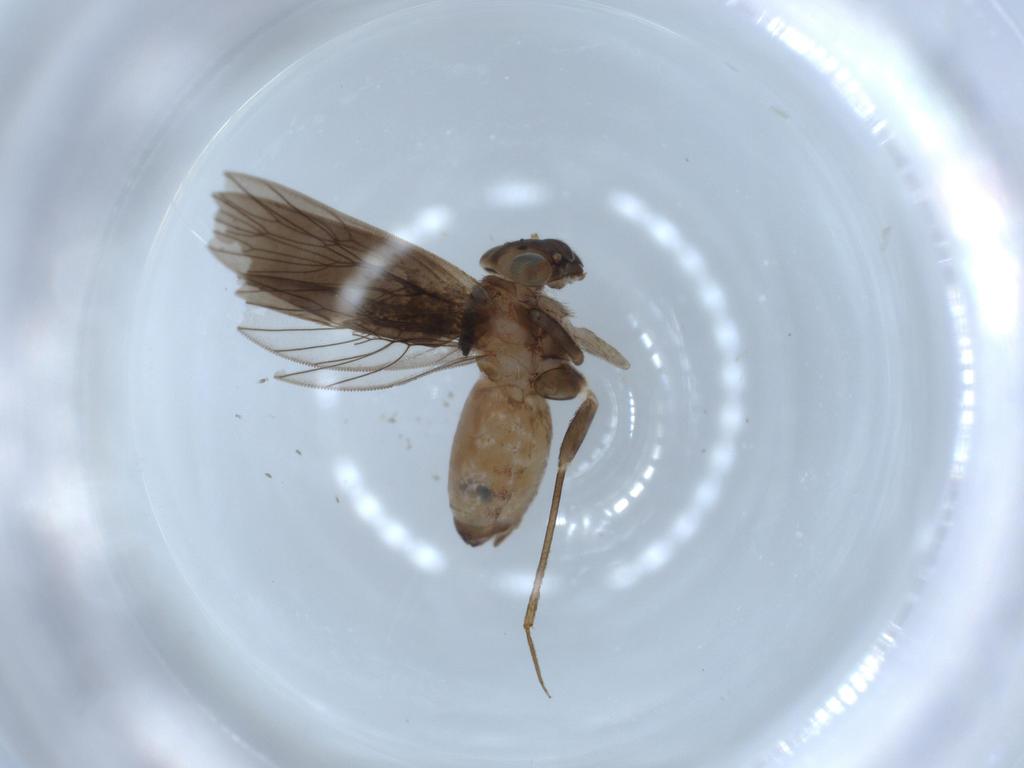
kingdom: Animalia
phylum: Arthropoda
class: Insecta
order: Psocodea
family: Lepidopsocidae
